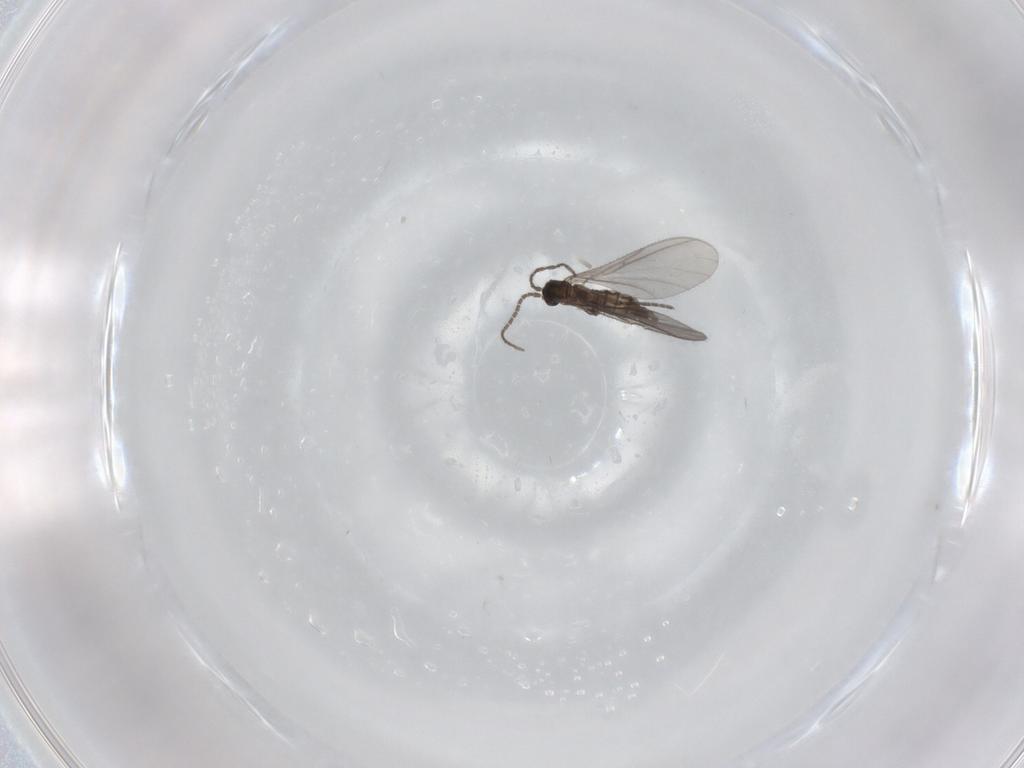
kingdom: Animalia
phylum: Arthropoda
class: Insecta
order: Diptera
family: Sciaridae
